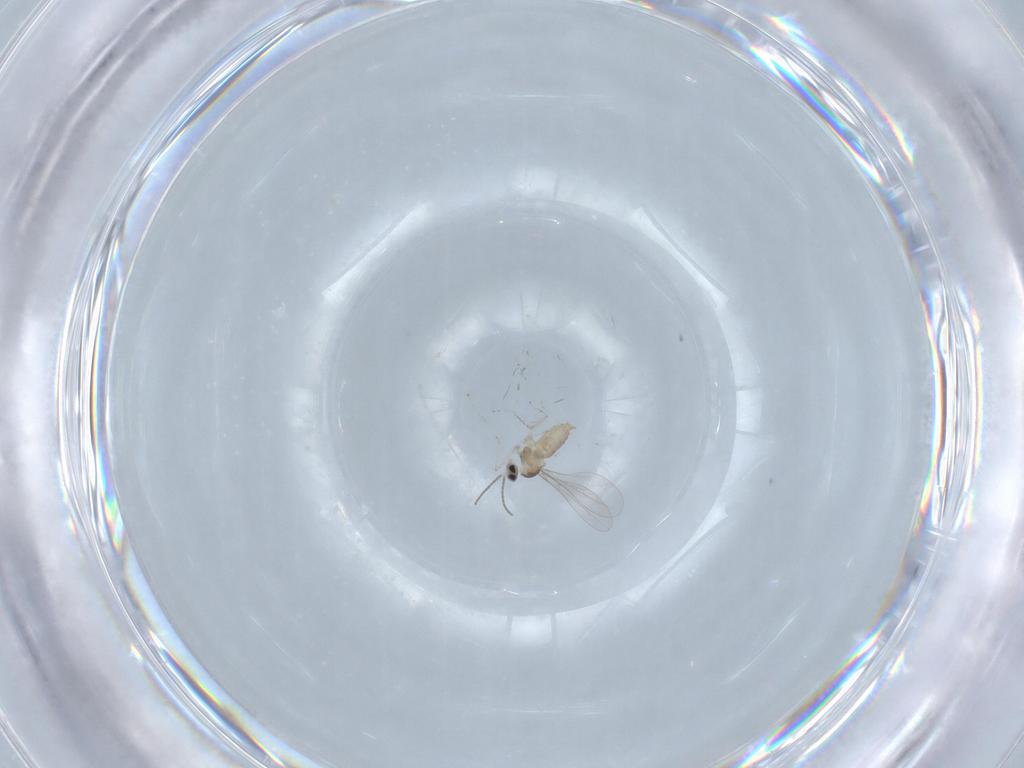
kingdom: Animalia
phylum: Arthropoda
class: Insecta
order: Diptera
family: Cecidomyiidae
